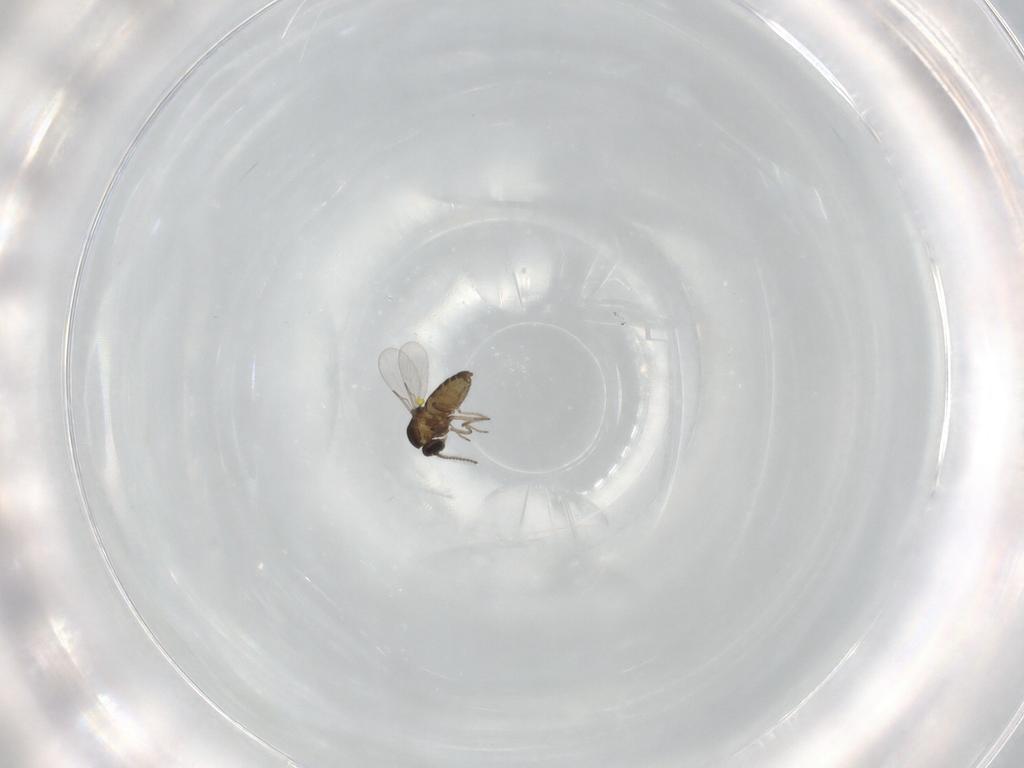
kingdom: Animalia
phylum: Arthropoda
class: Insecta
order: Diptera
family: Ceratopogonidae
